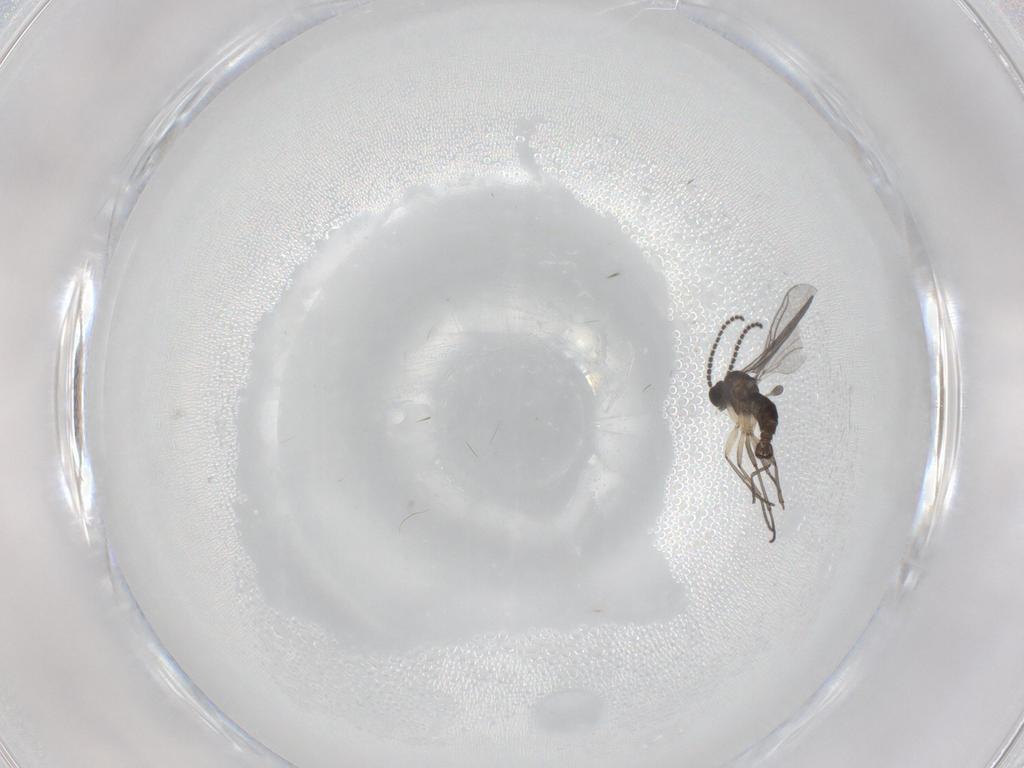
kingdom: Animalia
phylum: Arthropoda
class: Insecta
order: Diptera
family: Sciaridae
